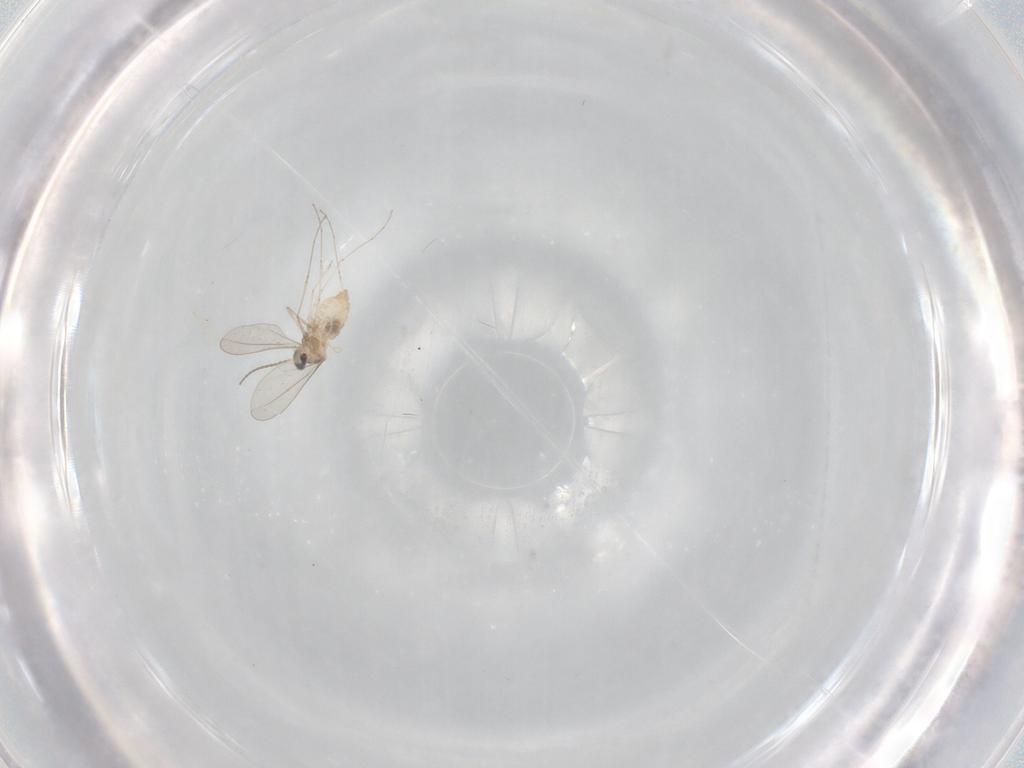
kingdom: Animalia
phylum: Arthropoda
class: Insecta
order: Diptera
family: Cecidomyiidae
